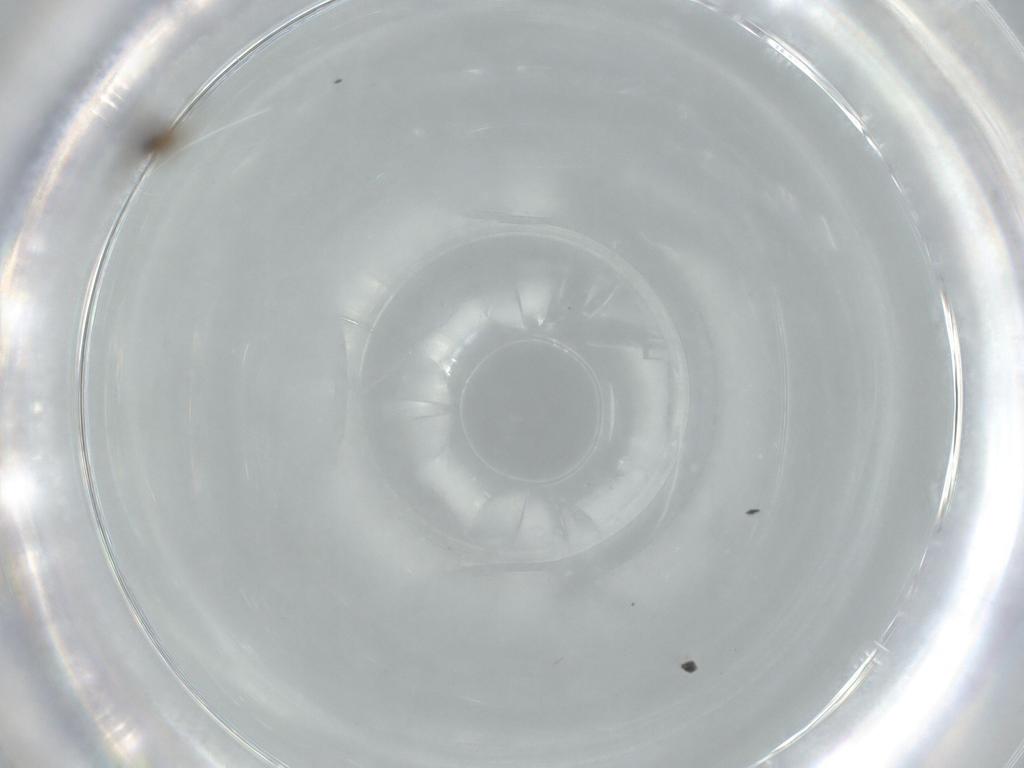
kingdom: Animalia
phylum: Arthropoda
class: Insecta
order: Hymenoptera
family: Diapriidae
